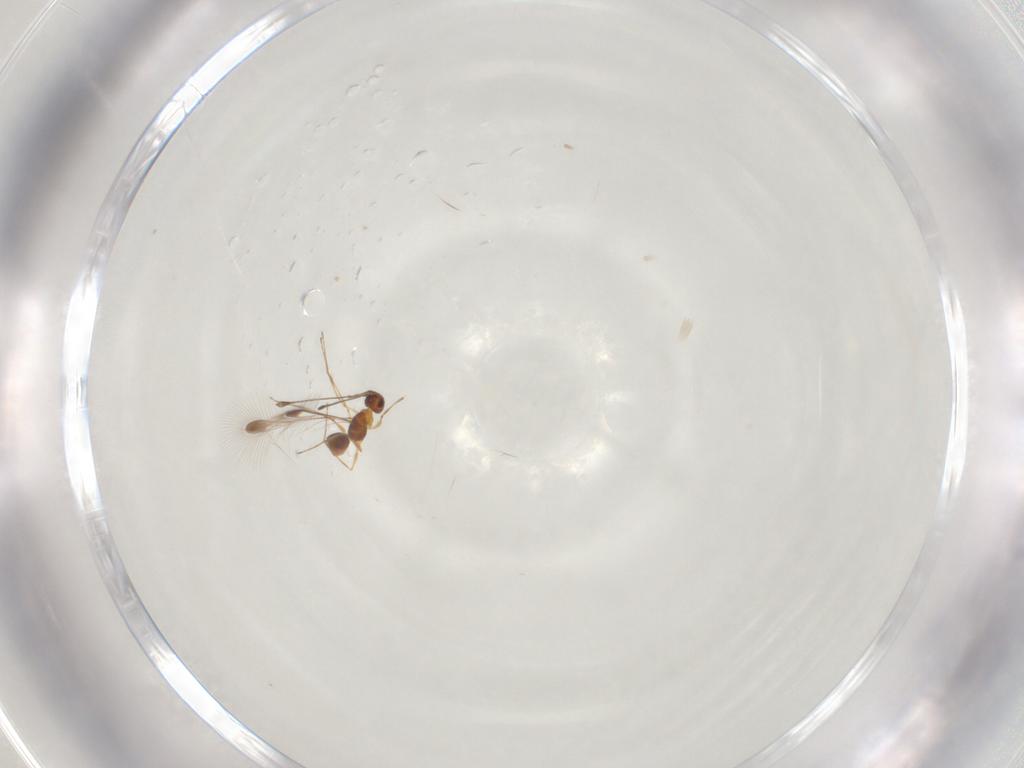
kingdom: Animalia
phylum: Arthropoda
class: Insecta
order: Hymenoptera
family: Mymaridae
